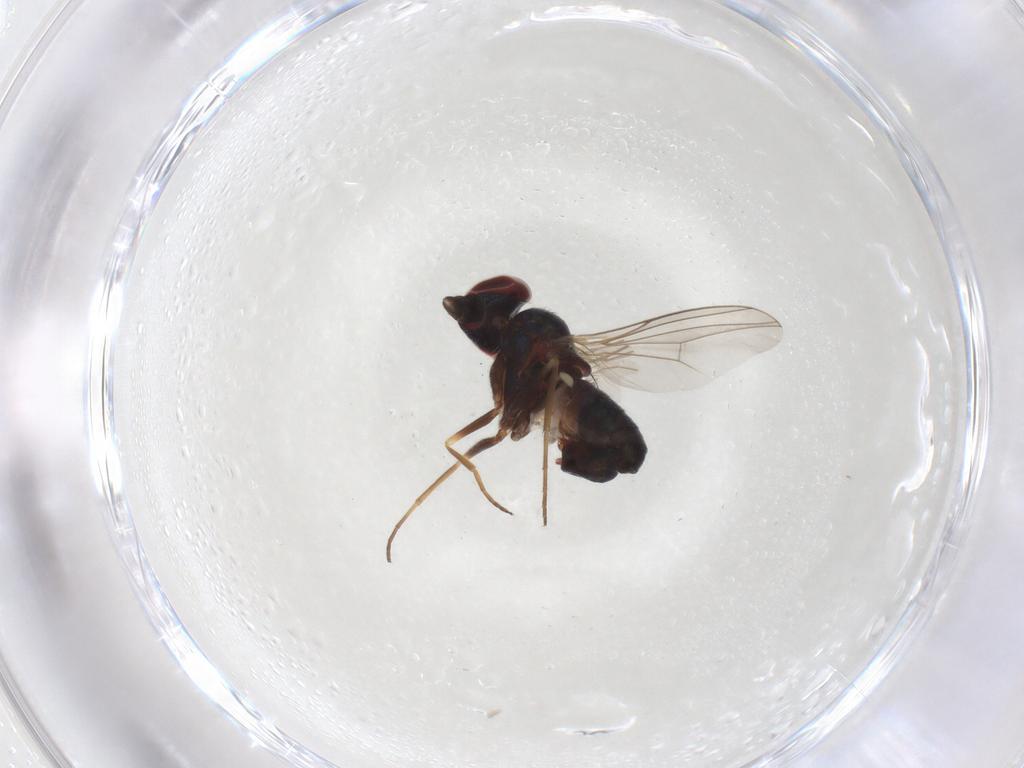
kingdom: Animalia
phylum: Arthropoda
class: Insecta
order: Diptera
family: Dolichopodidae
